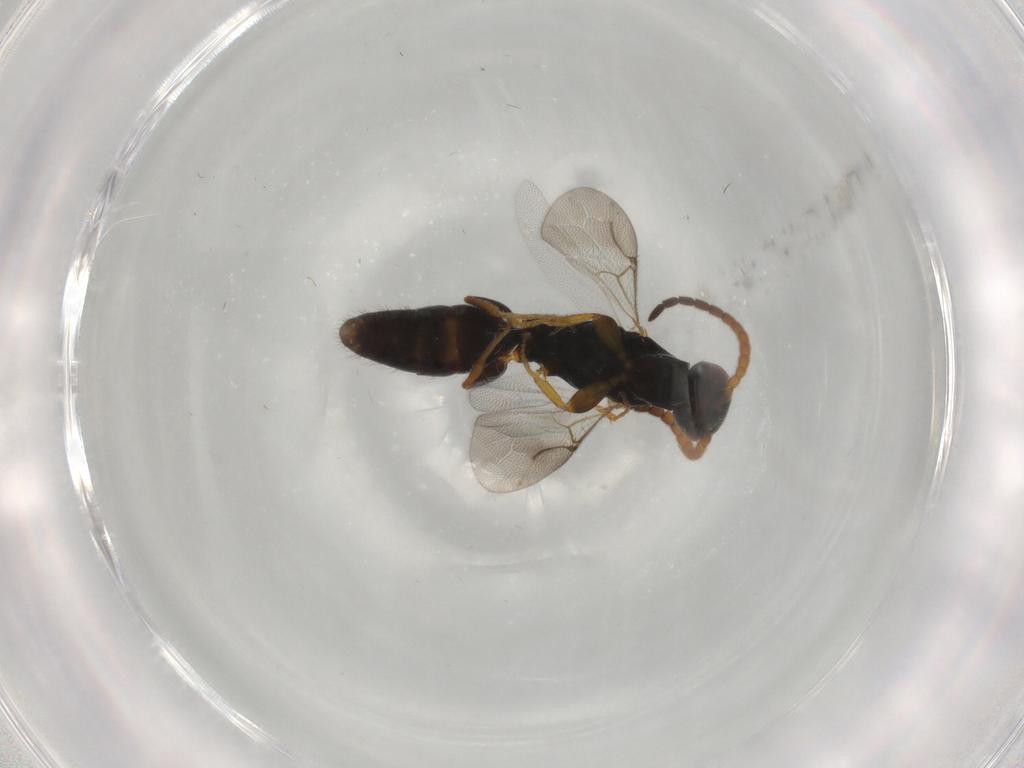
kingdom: Animalia
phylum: Arthropoda
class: Insecta
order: Hymenoptera
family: Bethylidae
